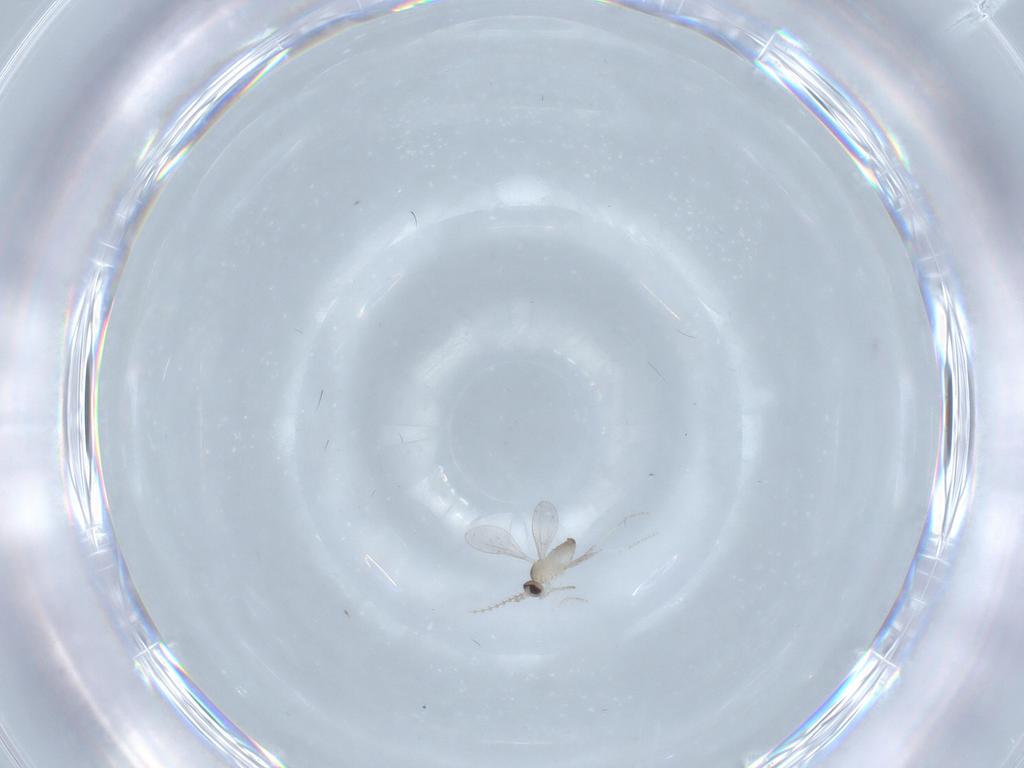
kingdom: Animalia
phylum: Arthropoda
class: Insecta
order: Diptera
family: Cecidomyiidae
